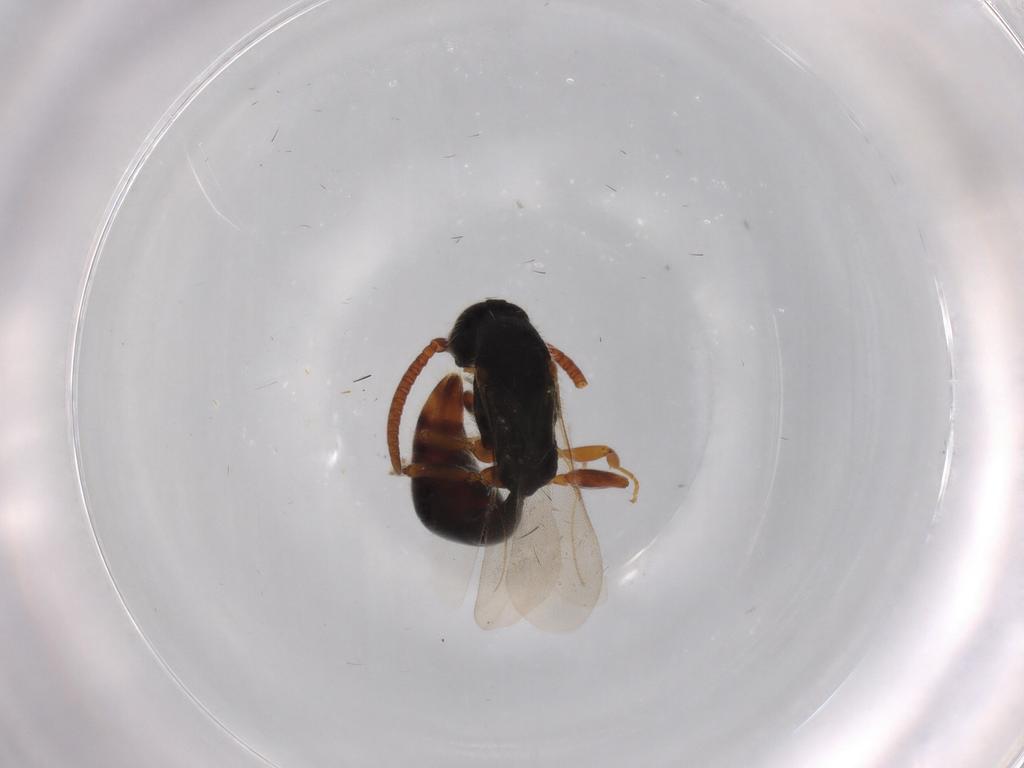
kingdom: Animalia
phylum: Arthropoda
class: Insecta
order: Hymenoptera
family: Bethylidae
